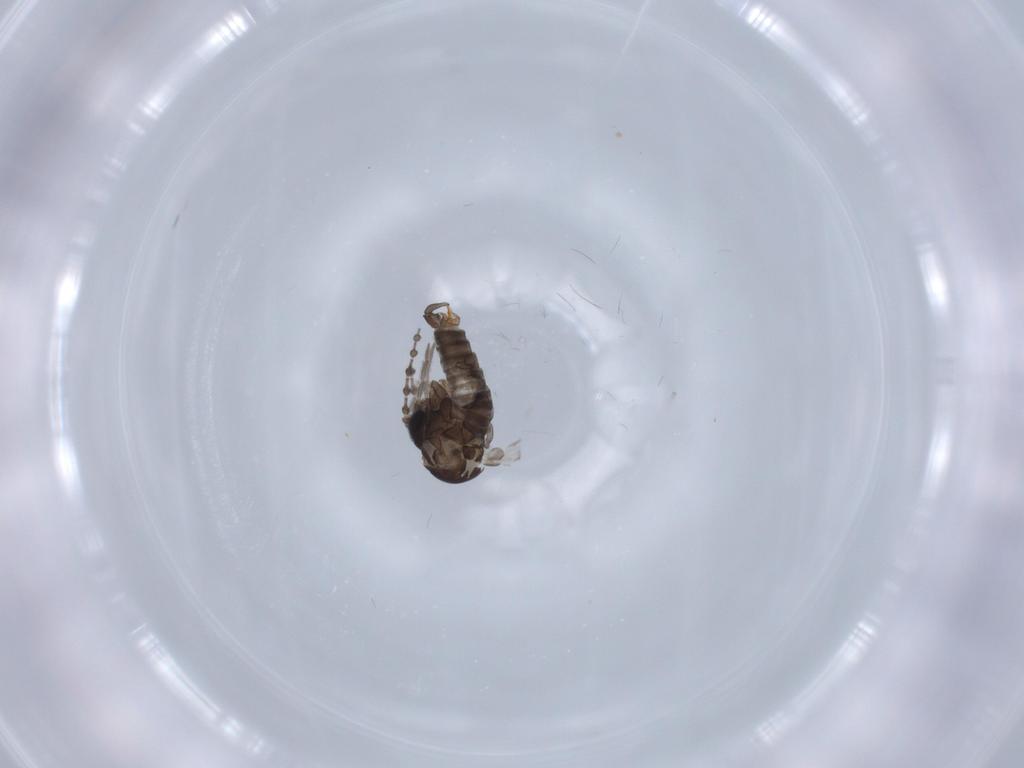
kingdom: Animalia
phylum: Arthropoda
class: Insecta
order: Diptera
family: Psychodidae
